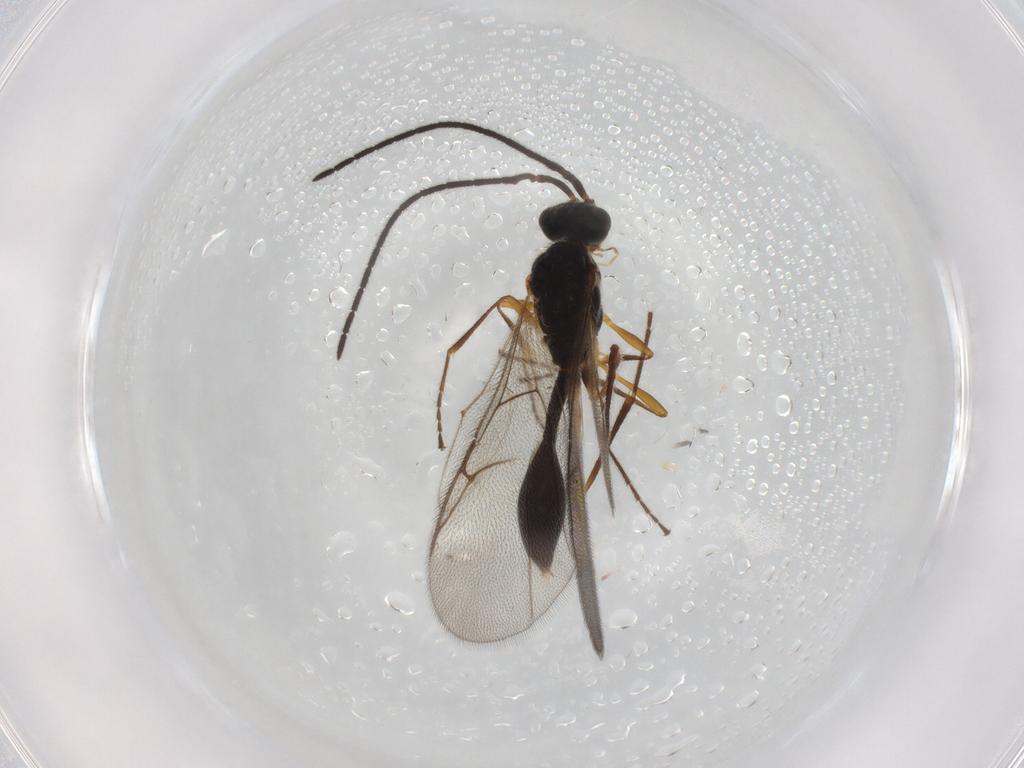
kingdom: Animalia
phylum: Arthropoda
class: Insecta
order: Hymenoptera
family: Scelionidae
